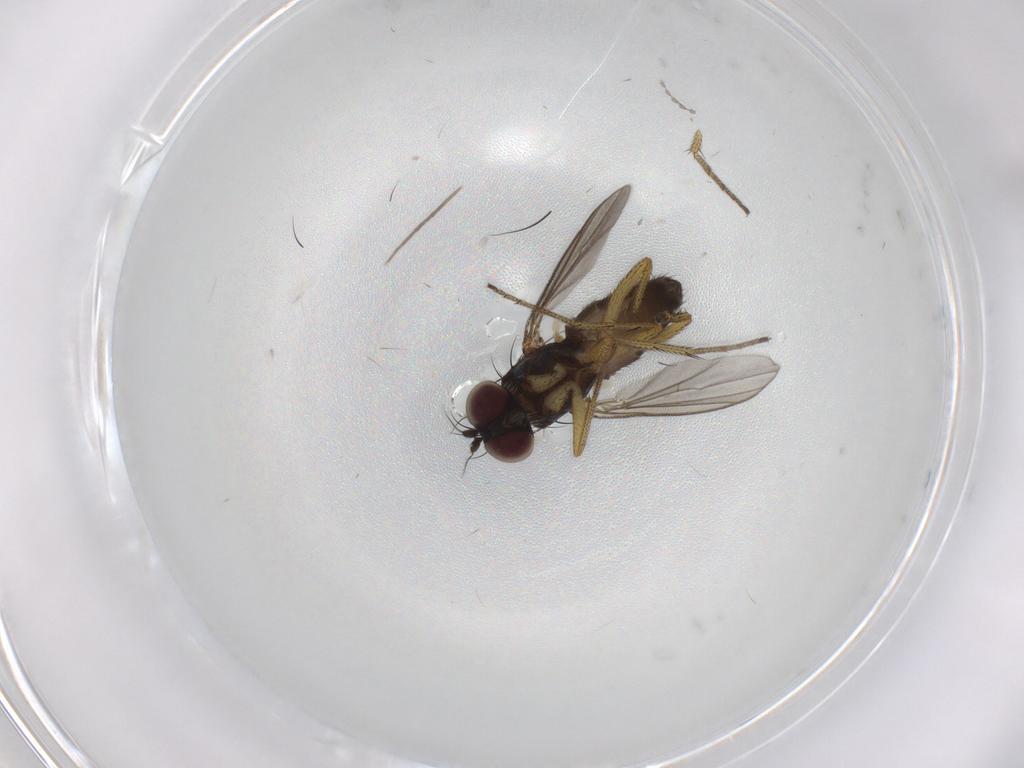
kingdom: Animalia
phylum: Arthropoda
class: Insecta
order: Diptera
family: Chironomidae
